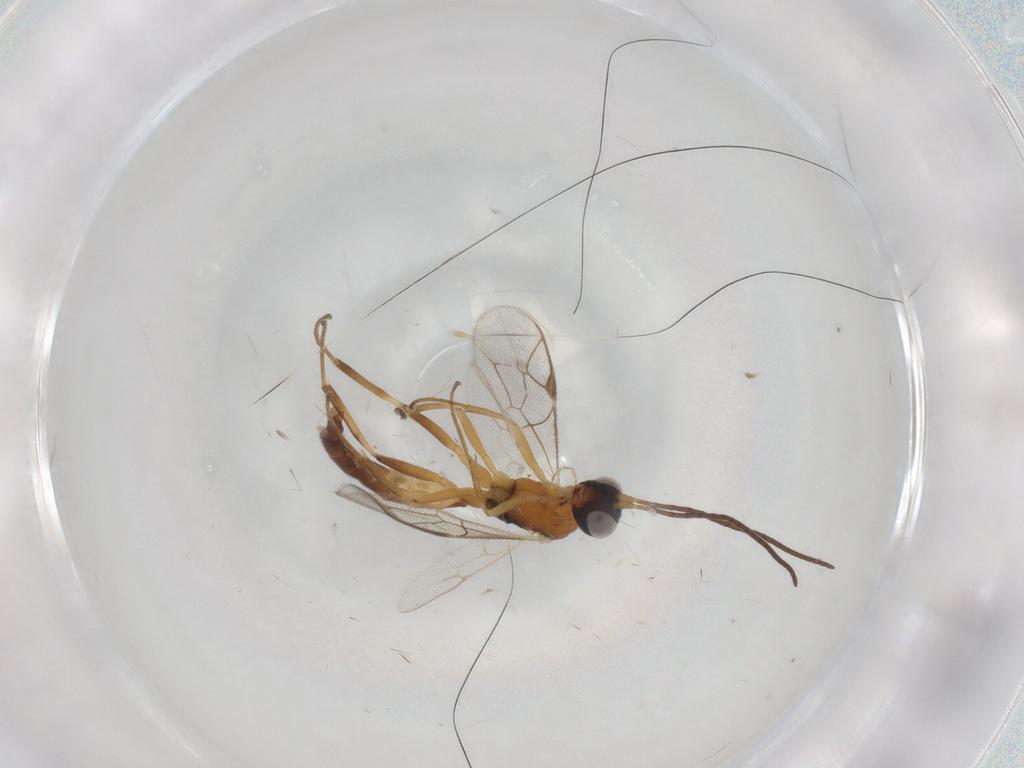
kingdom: Animalia
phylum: Arthropoda
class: Insecta
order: Hymenoptera
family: Ichneumonidae
